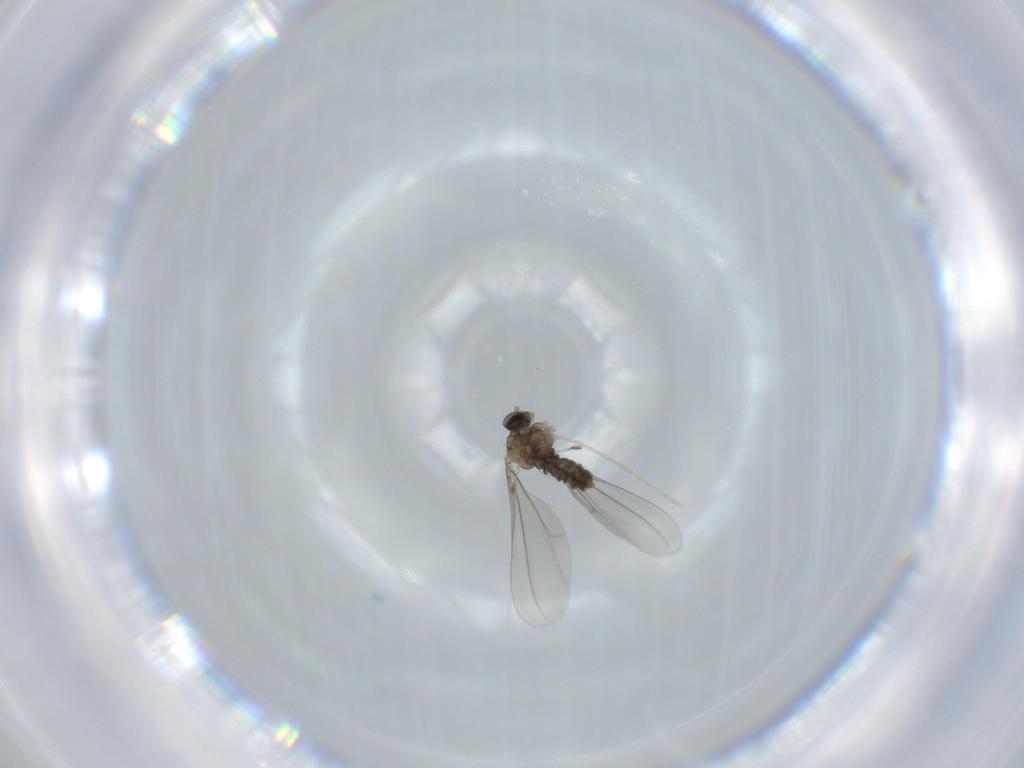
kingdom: Animalia
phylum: Arthropoda
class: Insecta
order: Diptera
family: Cecidomyiidae
